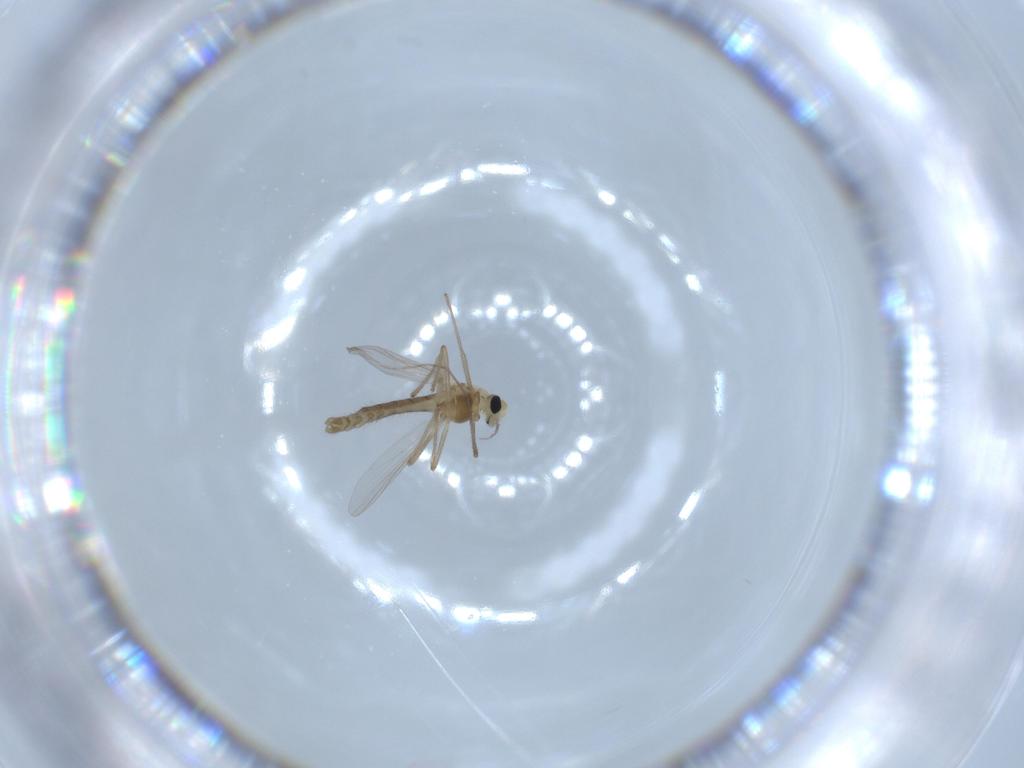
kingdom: Animalia
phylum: Arthropoda
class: Insecta
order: Diptera
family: Chironomidae
